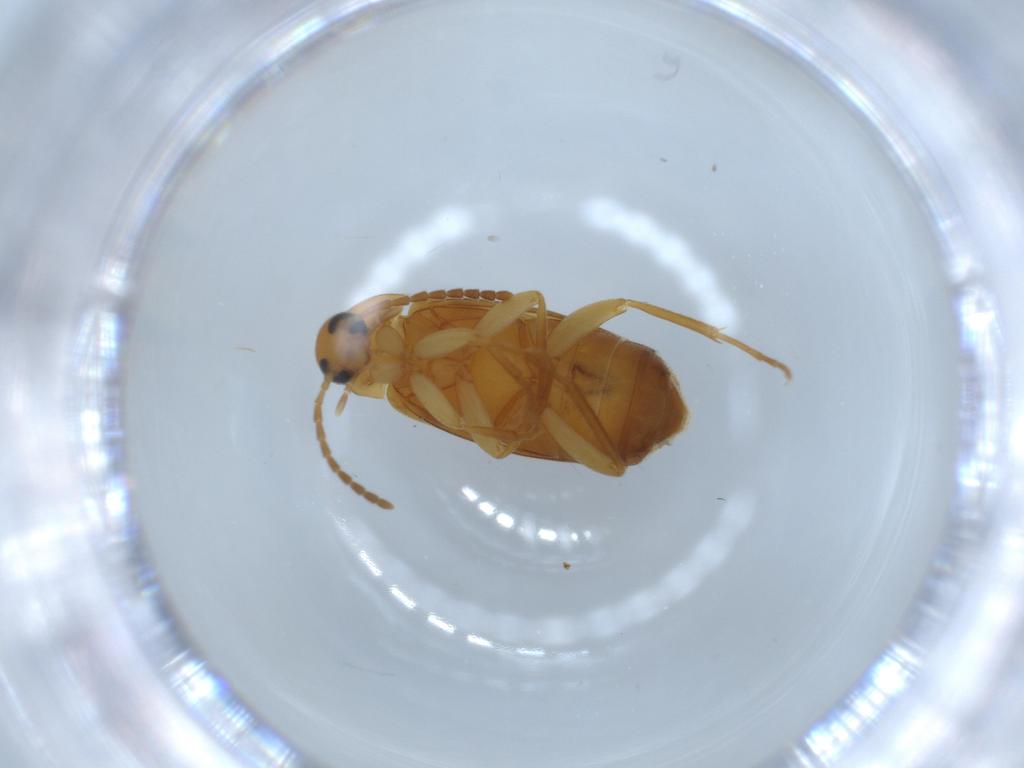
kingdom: Animalia
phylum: Arthropoda
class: Insecta
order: Coleoptera
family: Scraptiidae
